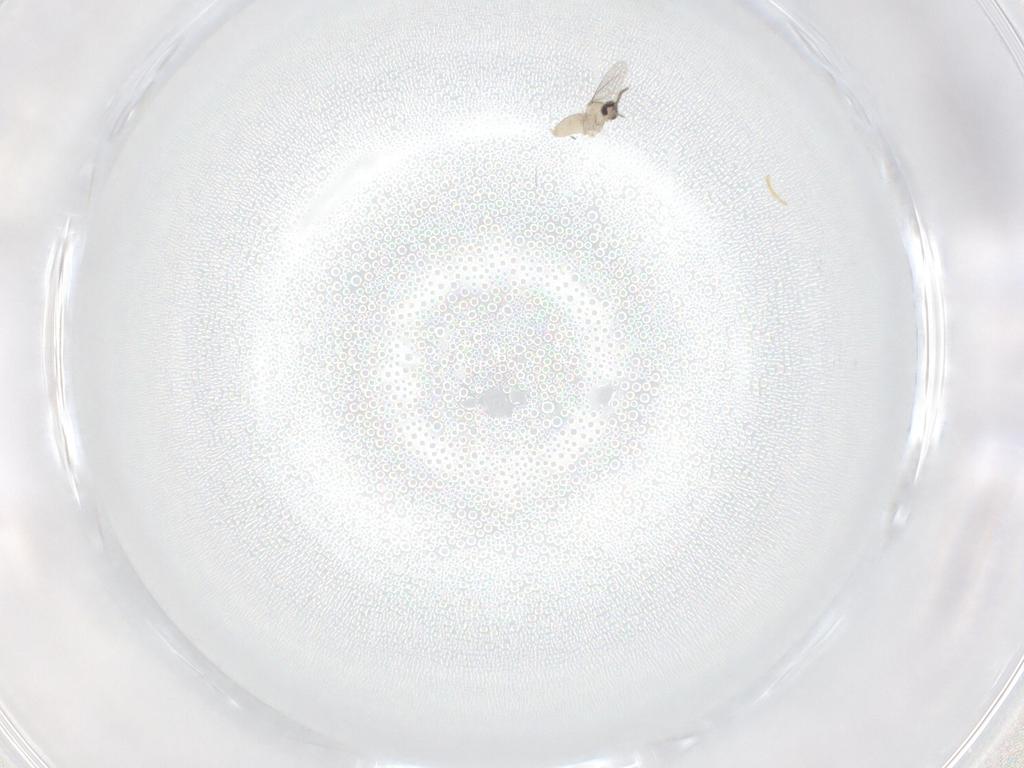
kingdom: Animalia
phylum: Arthropoda
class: Insecta
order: Diptera
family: Cecidomyiidae
